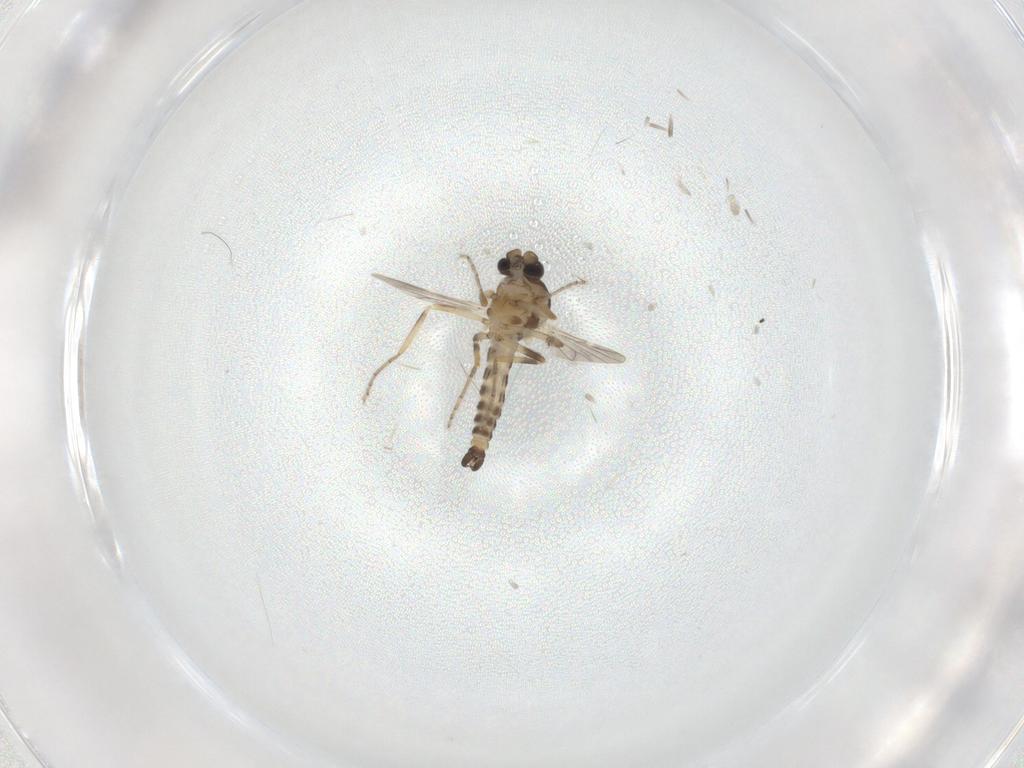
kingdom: Animalia
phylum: Arthropoda
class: Insecta
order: Diptera
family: Ceratopogonidae
